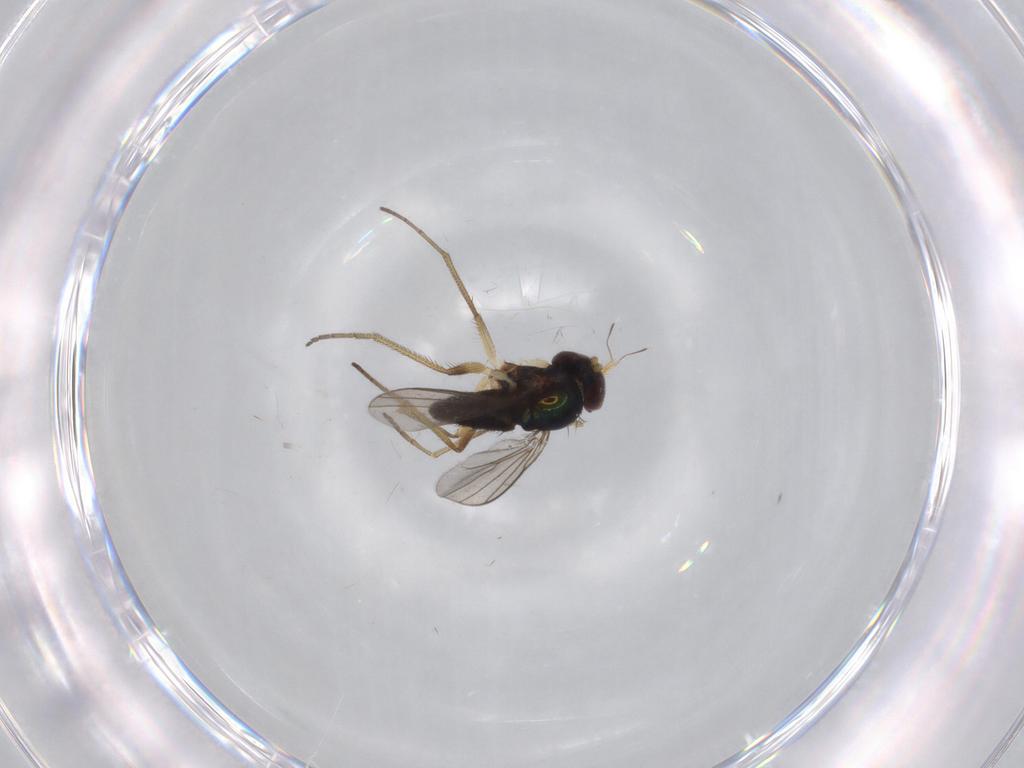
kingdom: Animalia
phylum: Arthropoda
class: Insecta
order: Diptera
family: Dolichopodidae
